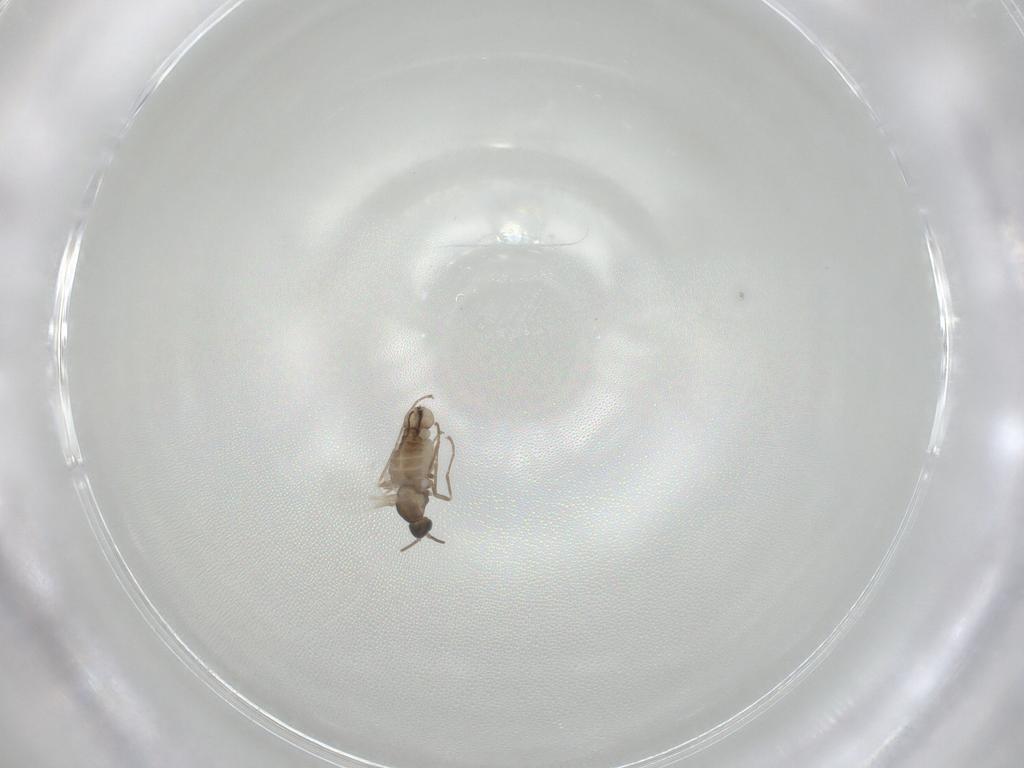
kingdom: Animalia
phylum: Arthropoda
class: Insecta
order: Diptera
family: Cecidomyiidae
